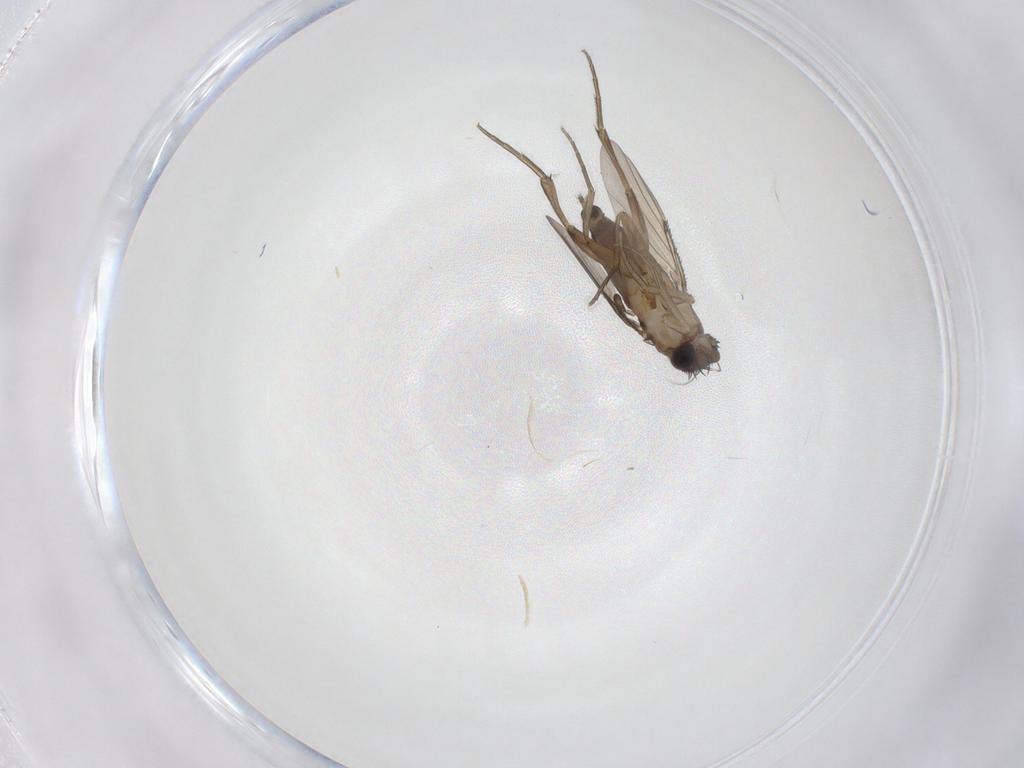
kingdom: Animalia
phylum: Arthropoda
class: Insecta
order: Diptera
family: Phoridae
